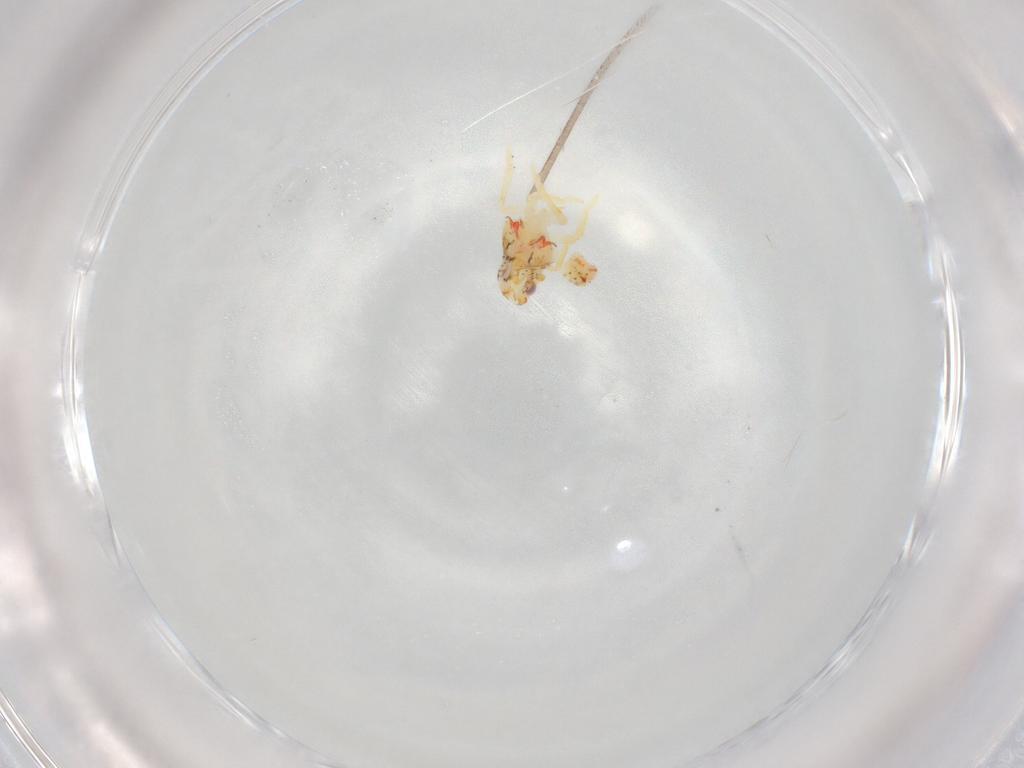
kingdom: Animalia
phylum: Arthropoda
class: Insecta
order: Hemiptera
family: Flatidae
